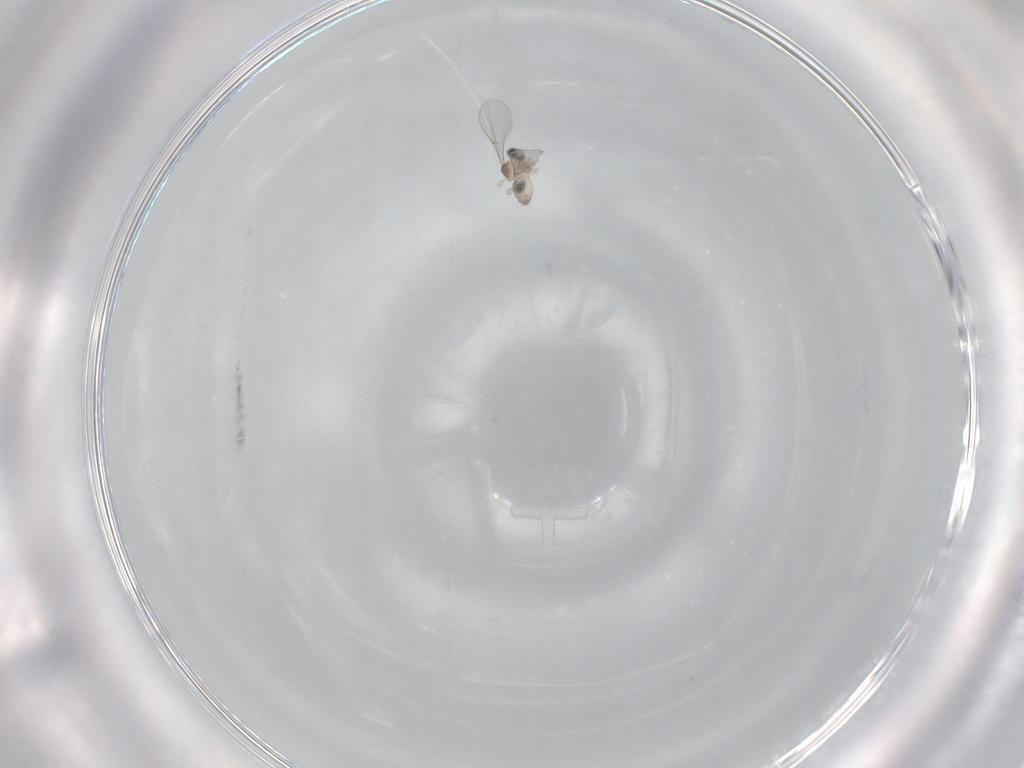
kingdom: Animalia
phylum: Arthropoda
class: Insecta
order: Diptera
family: Cecidomyiidae
